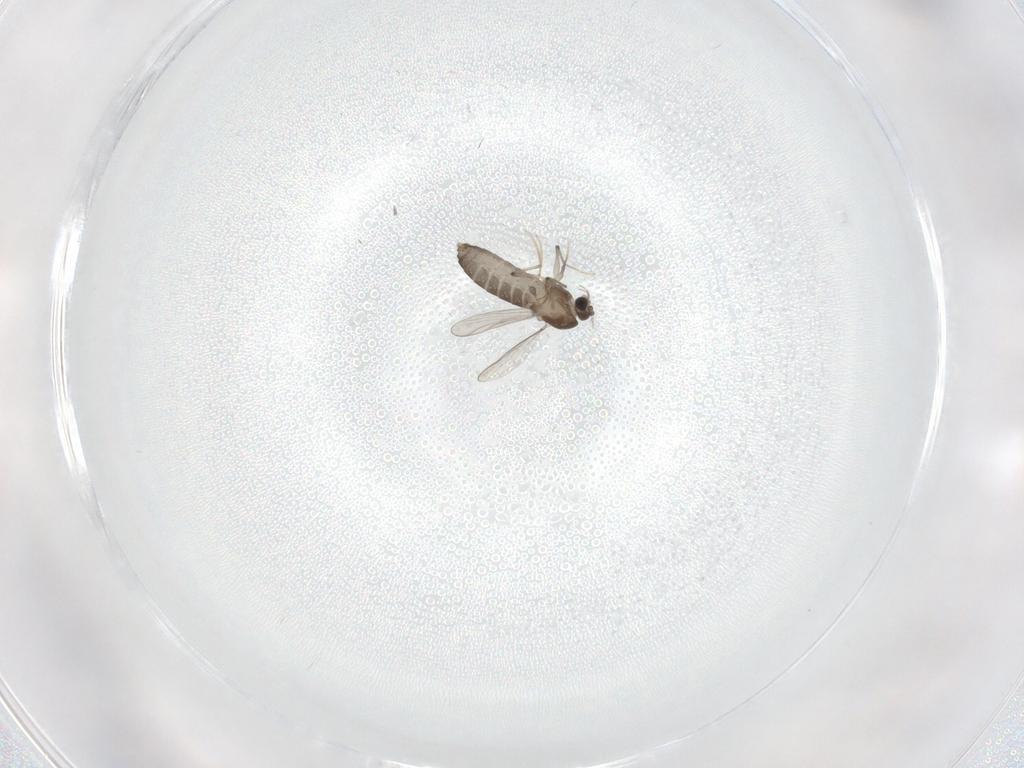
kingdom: Animalia
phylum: Arthropoda
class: Insecta
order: Diptera
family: Chironomidae
